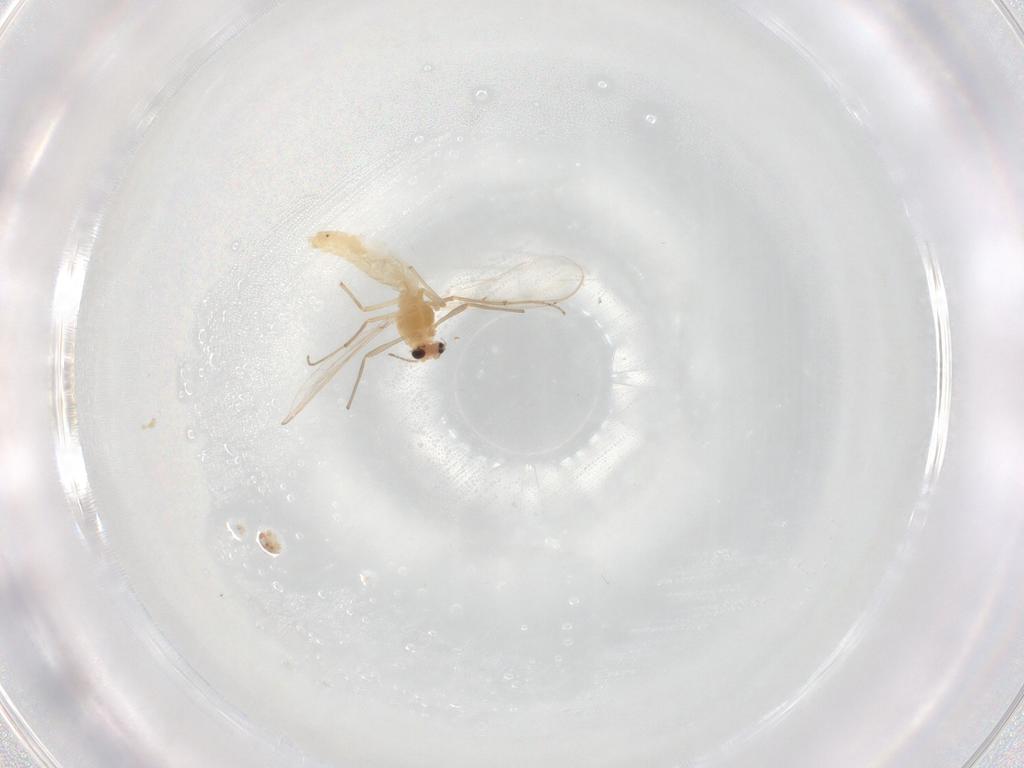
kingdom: Animalia
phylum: Arthropoda
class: Insecta
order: Diptera
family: Chironomidae
